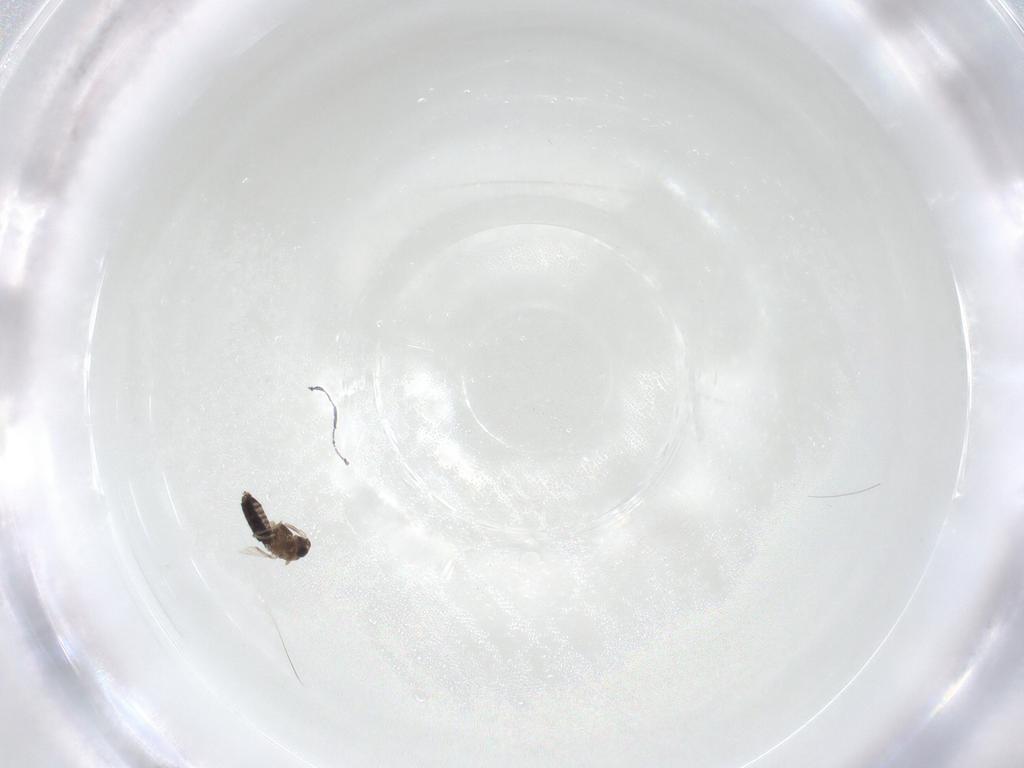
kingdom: Animalia
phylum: Arthropoda
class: Insecta
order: Diptera
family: Chironomidae
